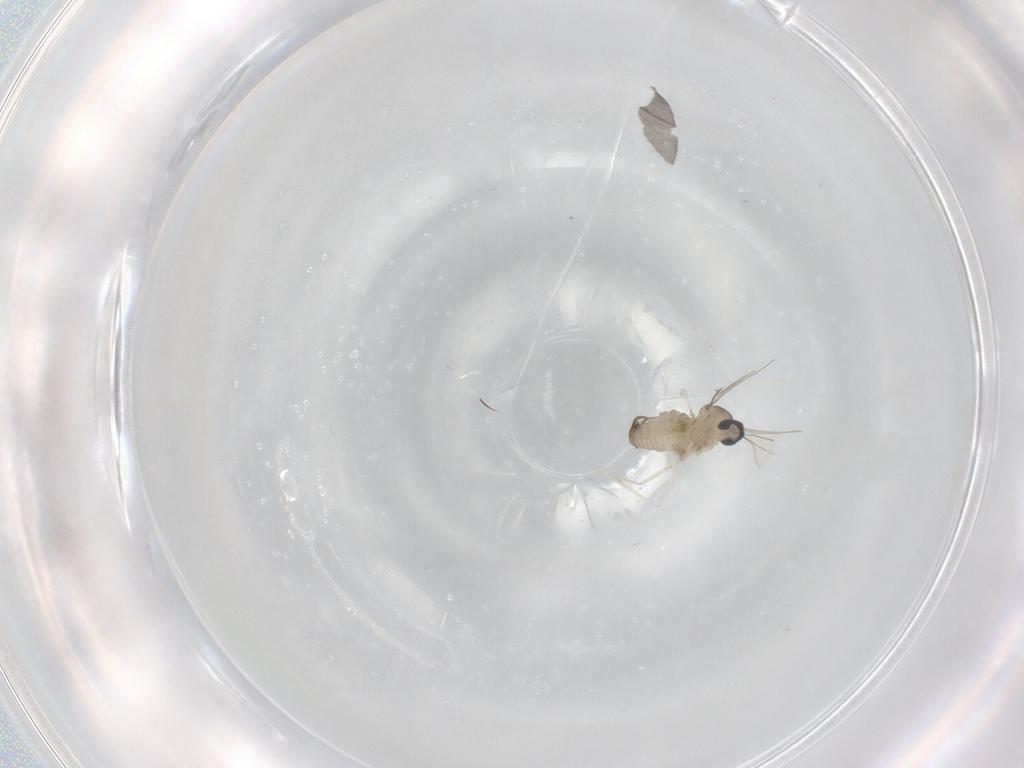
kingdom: Animalia
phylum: Arthropoda
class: Insecta
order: Diptera
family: Cecidomyiidae
